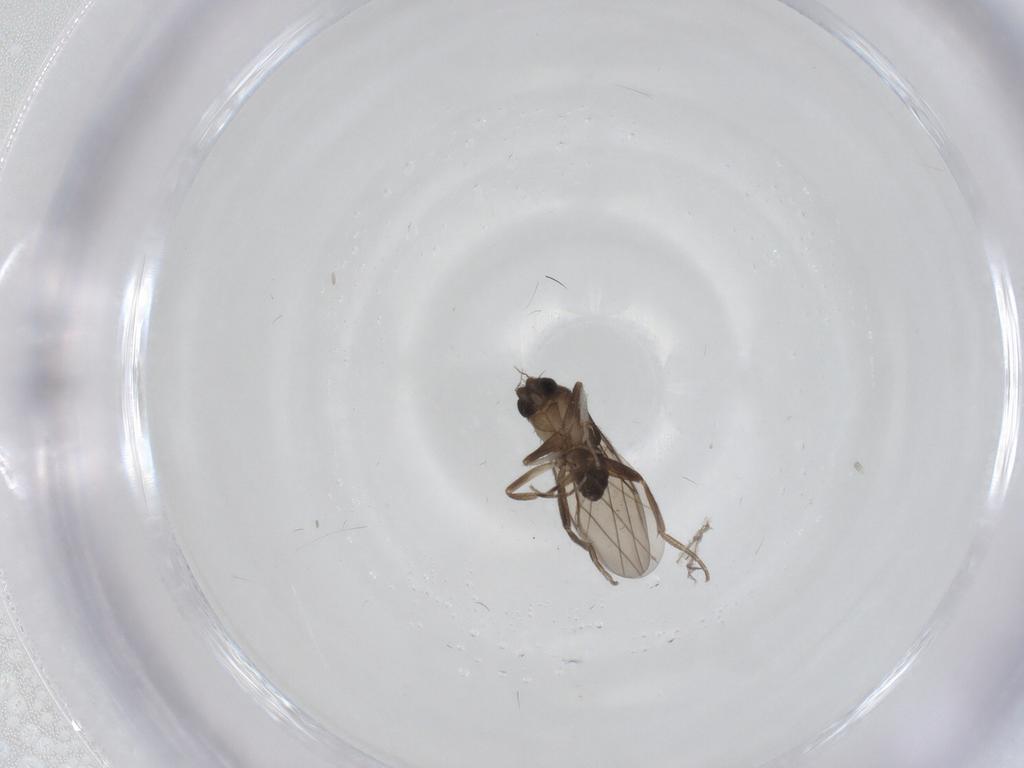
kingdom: Animalia
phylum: Arthropoda
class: Insecta
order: Diptera
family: Phoridae
